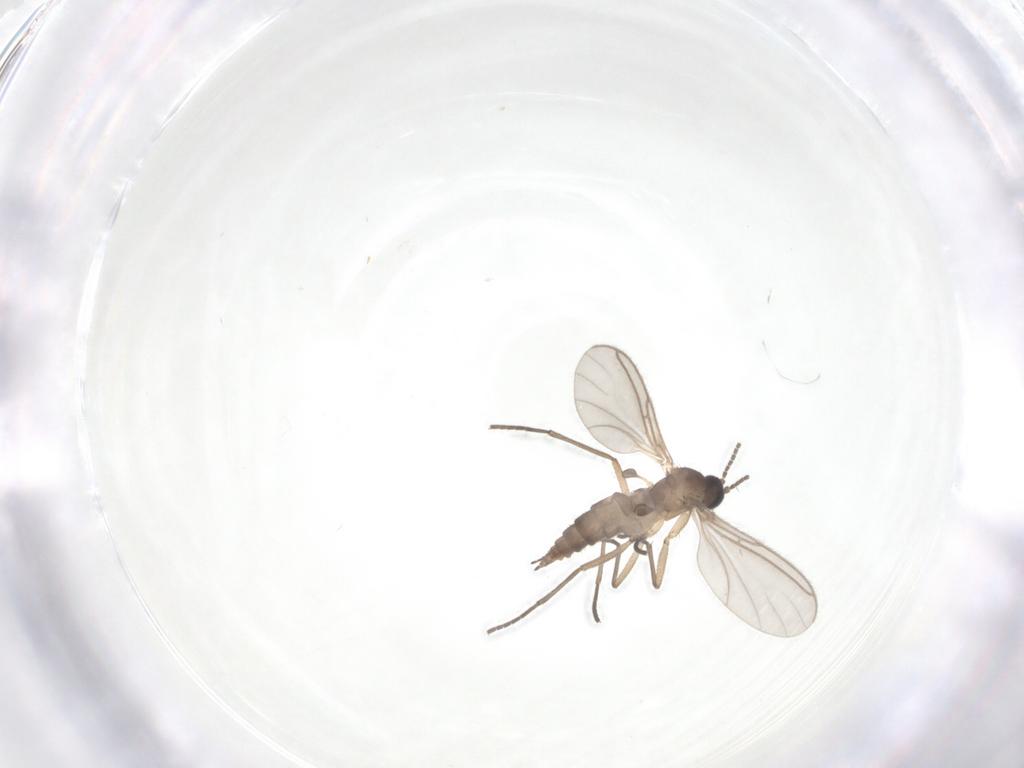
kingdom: Animalia
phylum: Arthropoda
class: Insecta
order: Diptera
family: Sciaridae
